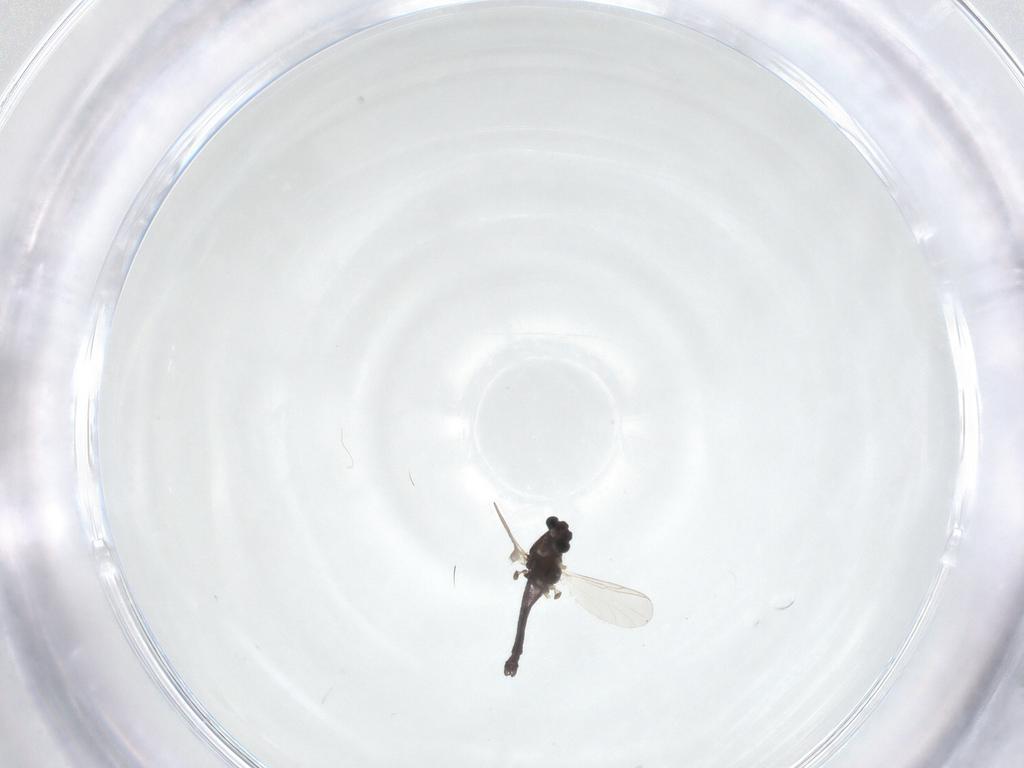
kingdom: Animalia
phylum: Arthropoda
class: Insecta
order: Diptera
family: Chironomidae
